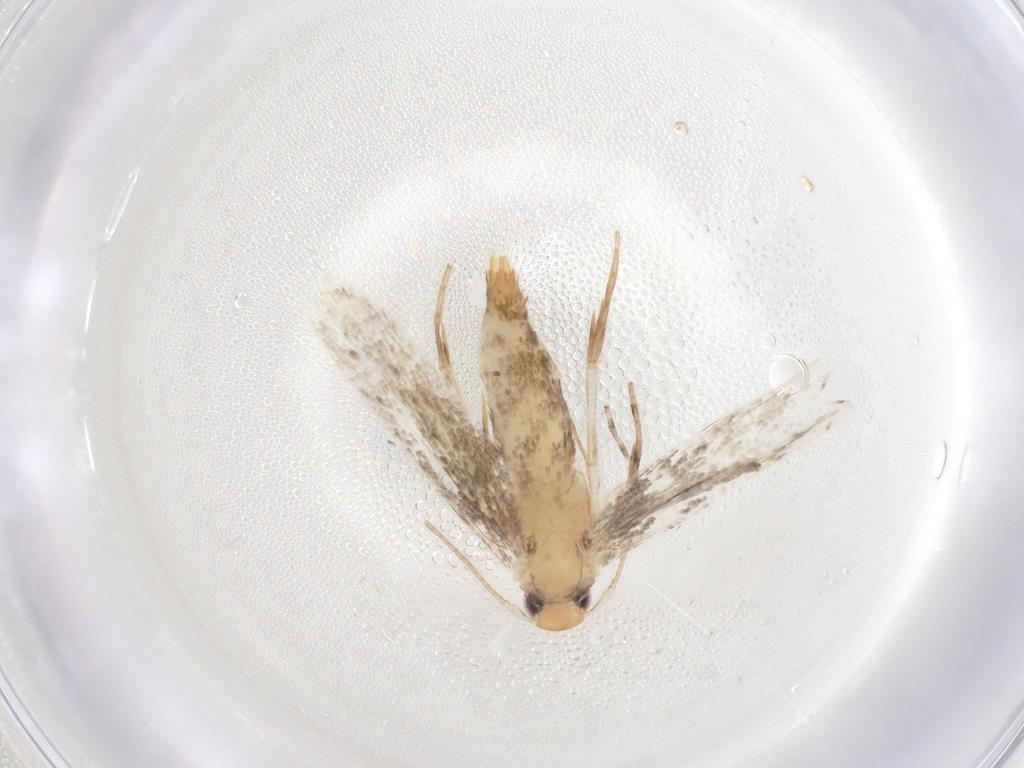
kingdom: Animalia
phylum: Arthropoda
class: Insecta
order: Lepidoptera
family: Momphidae
